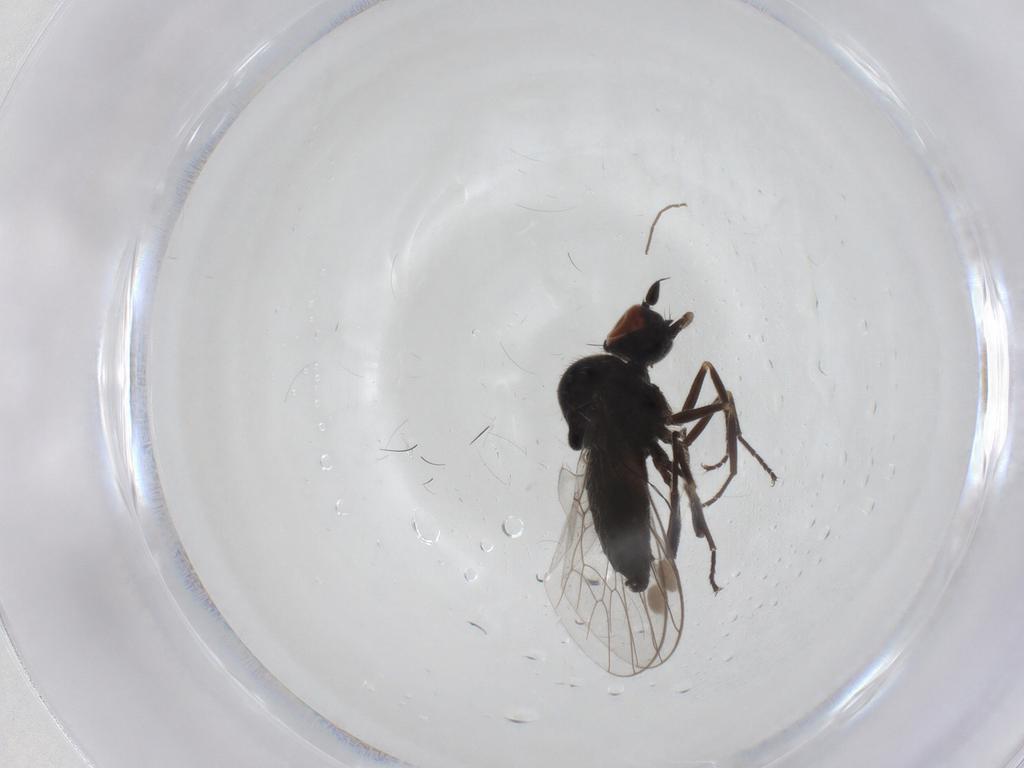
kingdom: Animalia
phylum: Arthropoda
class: Insecta
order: Diptera
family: Muscidae
